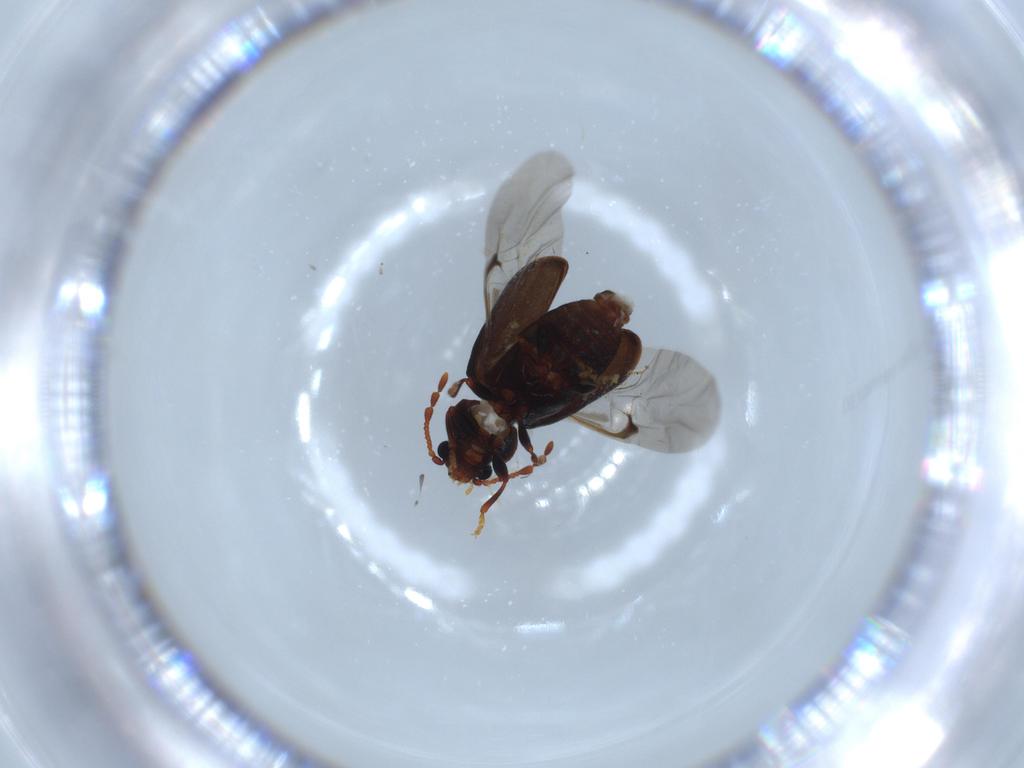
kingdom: Animalia
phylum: Arthropoda
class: Insecta
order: Coleoptera
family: Ptinidae
